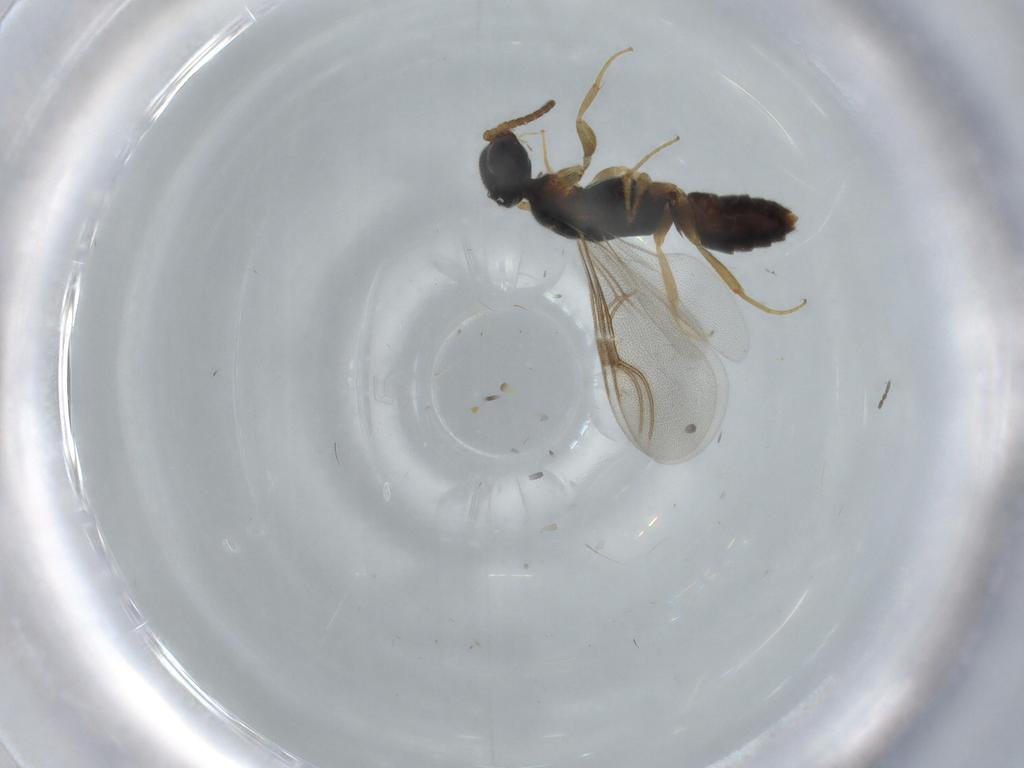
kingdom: Animalia
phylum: Arthropoda
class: Insecta
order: Hymenoptera
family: Bethylidae
